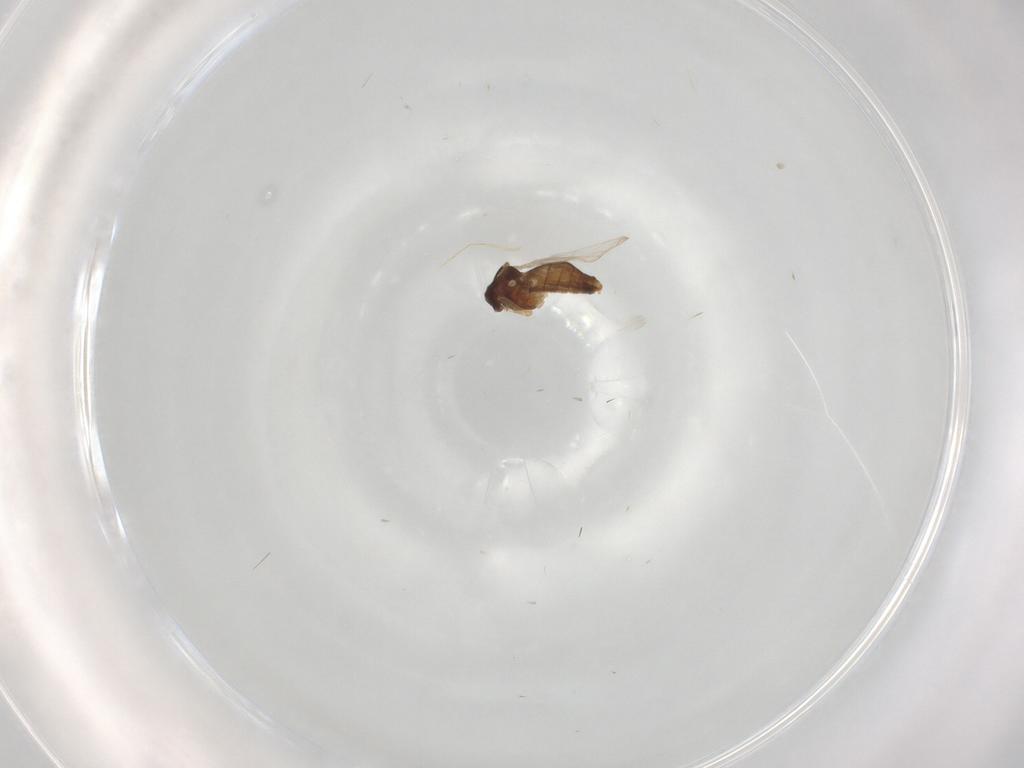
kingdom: Animalia
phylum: Arthropoda
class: Insecta
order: Diptera
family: Ceratopogonidae
